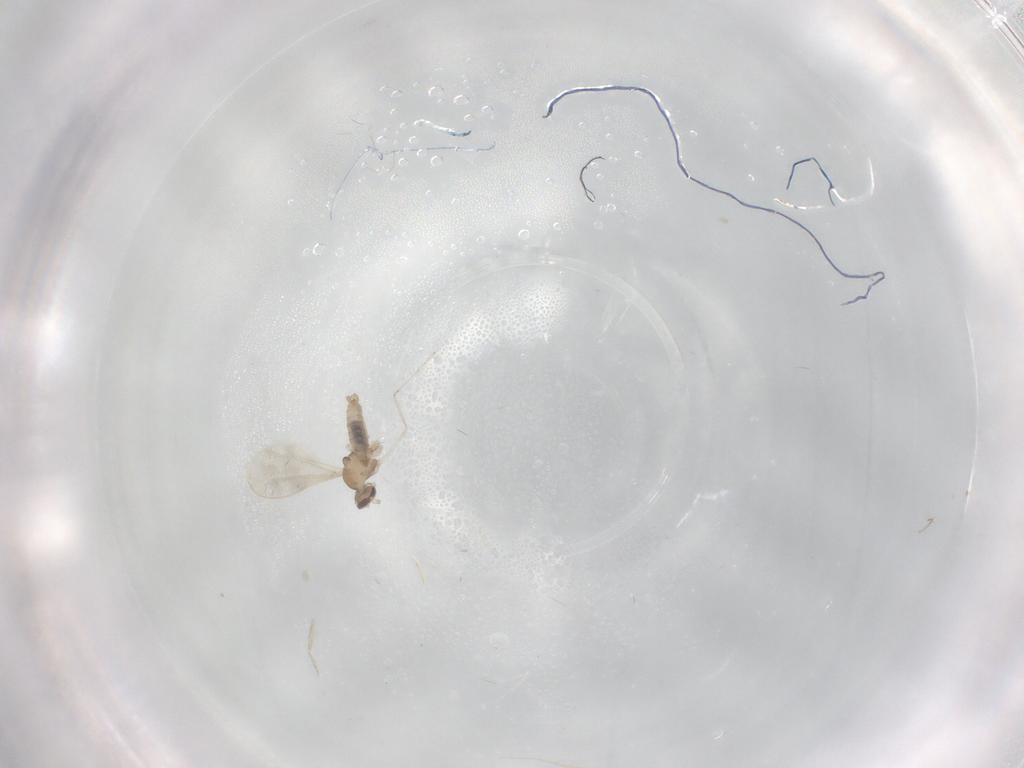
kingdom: Animalia
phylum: Arthropoda
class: Insecta
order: Diptera
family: Cecidomyiidae
